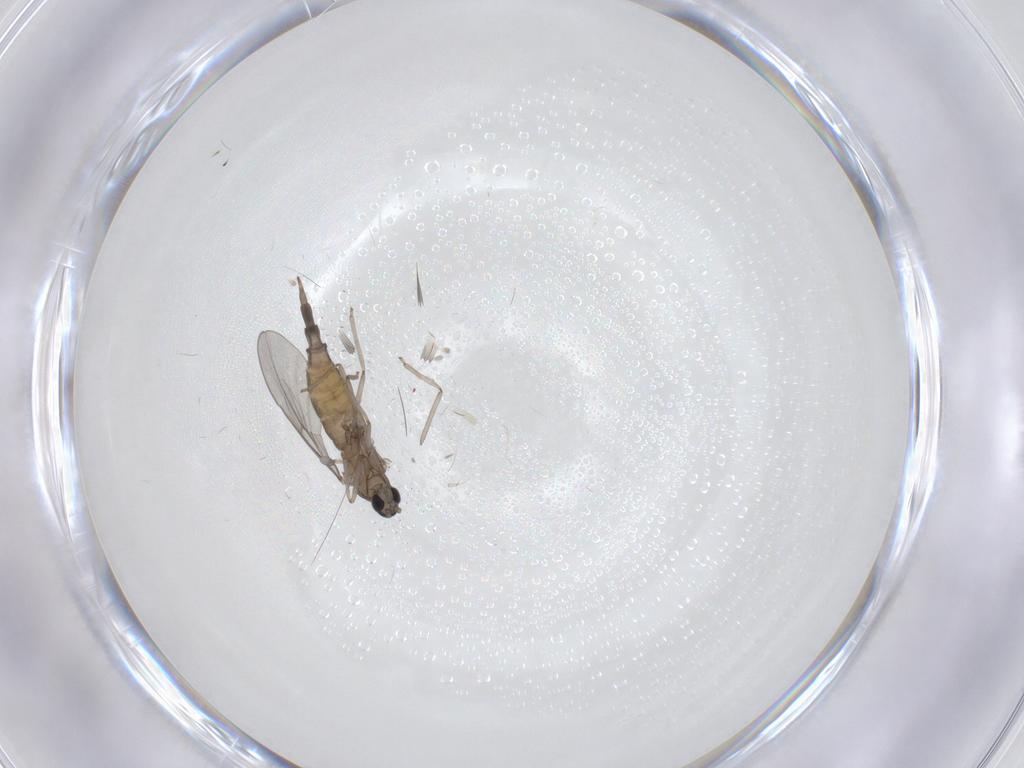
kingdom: Animalia
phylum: Arthropoda
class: Insecta
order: Diptera
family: Cecidomyiidae
